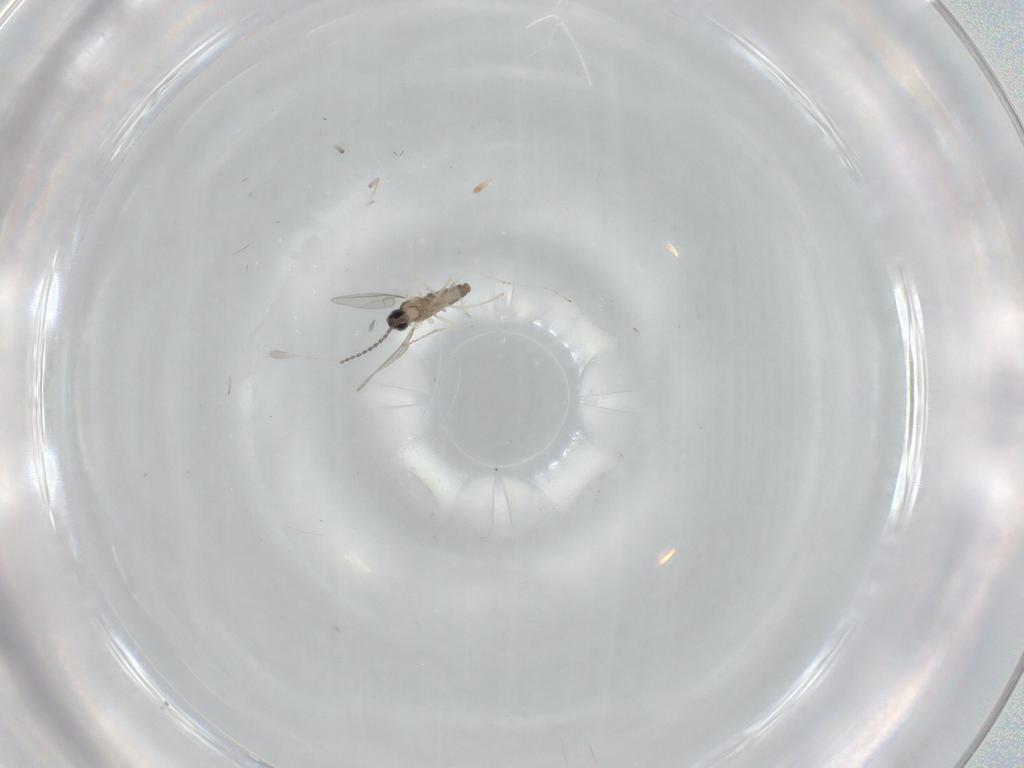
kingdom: Animalia
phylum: Arthropoda
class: Insecta
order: Diptera
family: Cecidomyiidae
